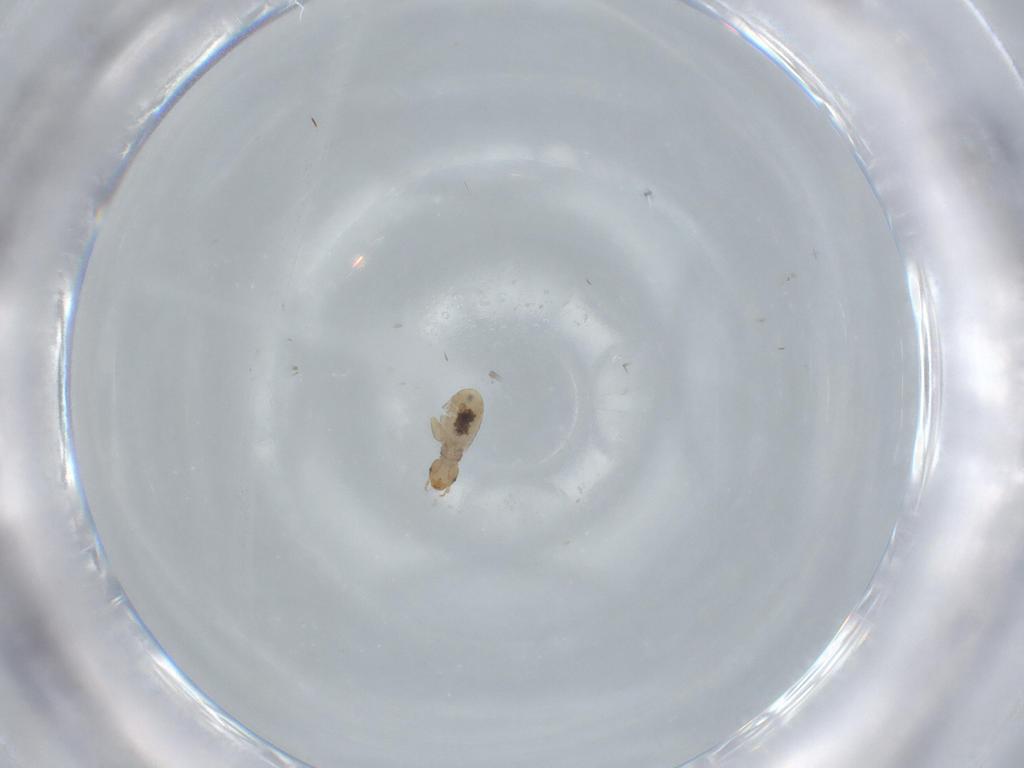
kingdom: Animalia
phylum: Arthropoda
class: Insecta
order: Psocodea
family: Liposcelididae
